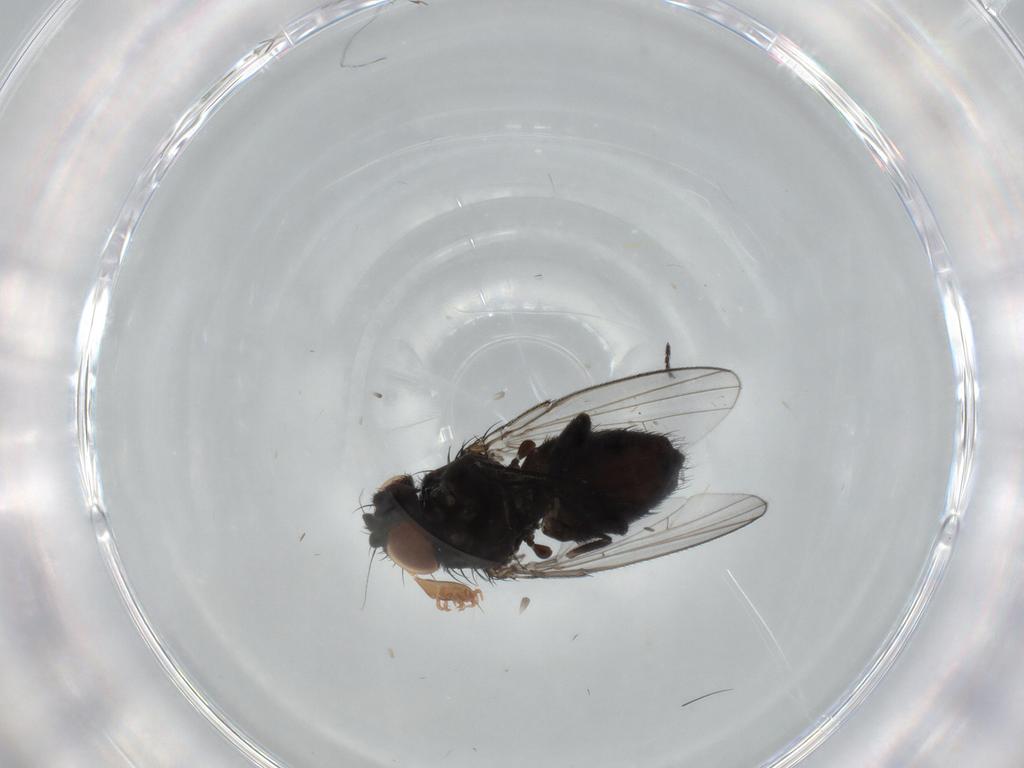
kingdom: Animalia
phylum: Arthropoda
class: Insecta
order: Diptera
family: Milichiidae
